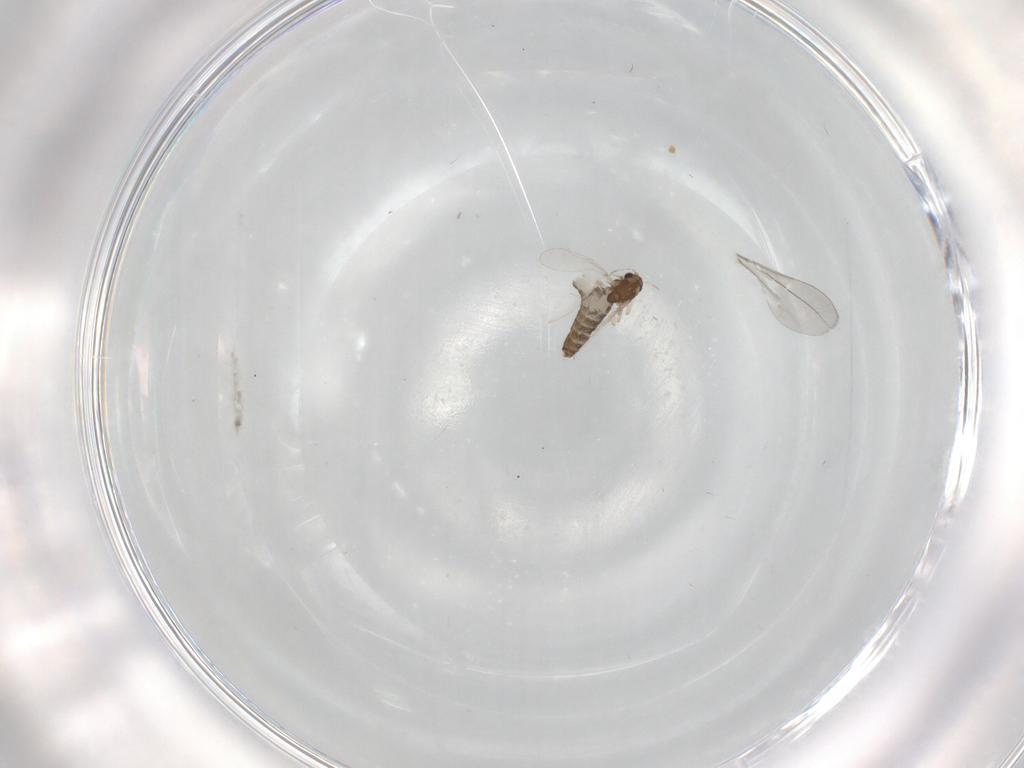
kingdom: Animalia
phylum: Arthropoda
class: Insecta
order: Diptera
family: Chironomidae
